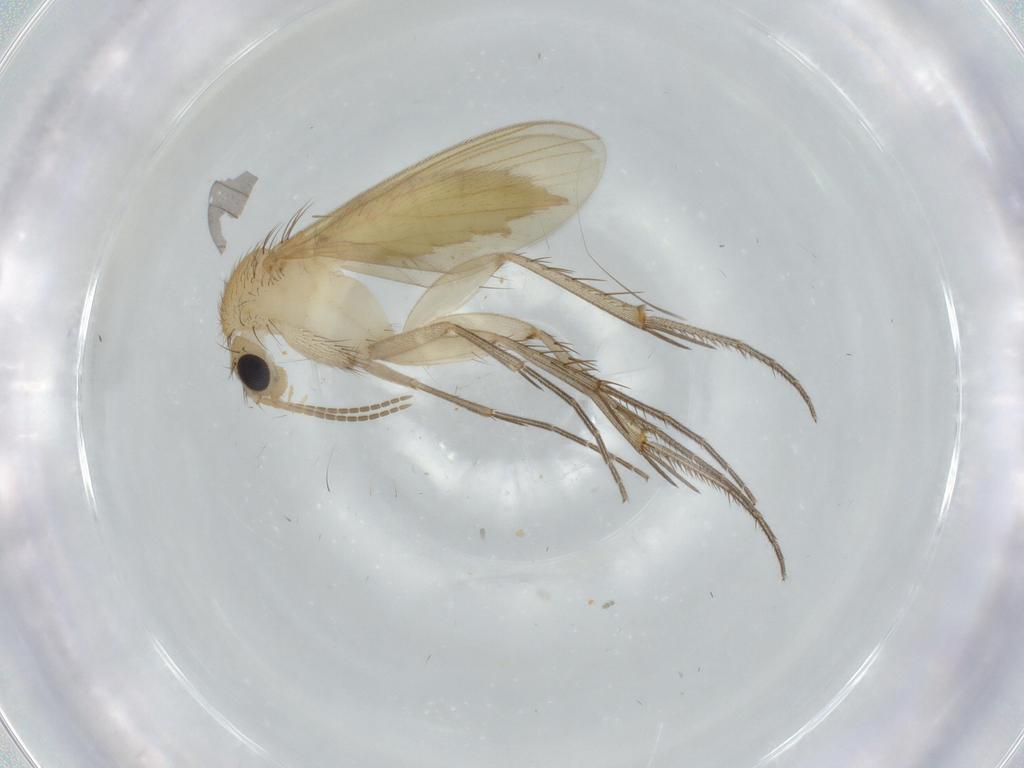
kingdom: Animalia
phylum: Arthropoda
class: Insecta
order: Diptera
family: Mycetophilidae
